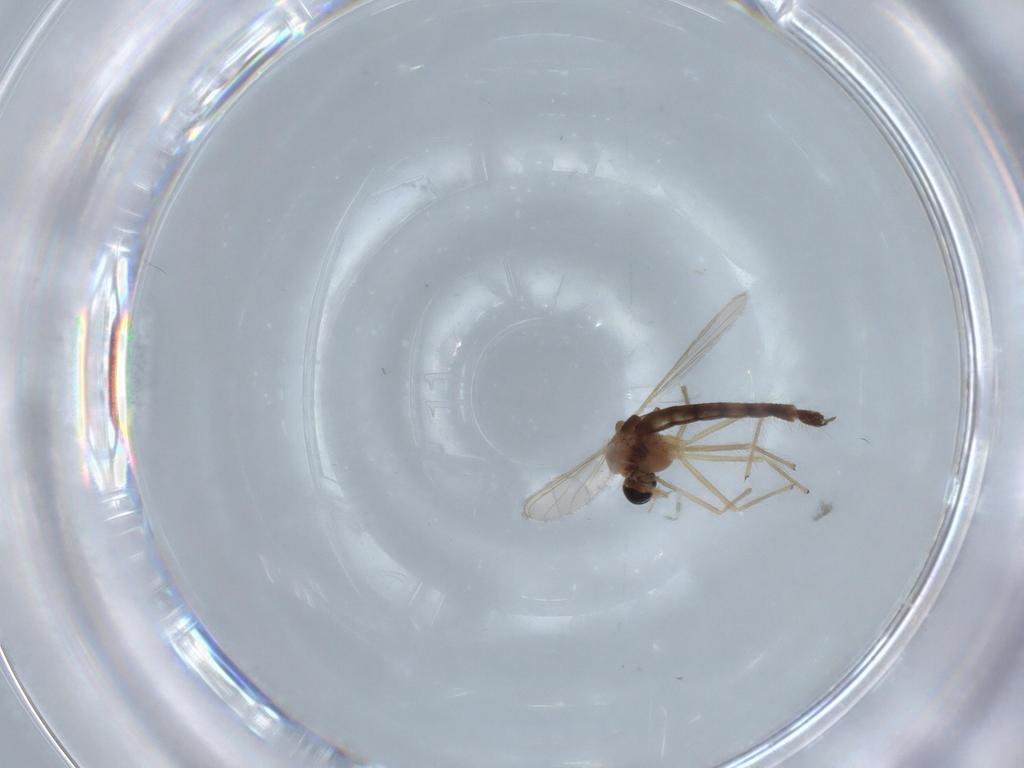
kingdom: Animalia
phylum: Arthropoda
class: Insecta
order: Diptera
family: Chironomidae
